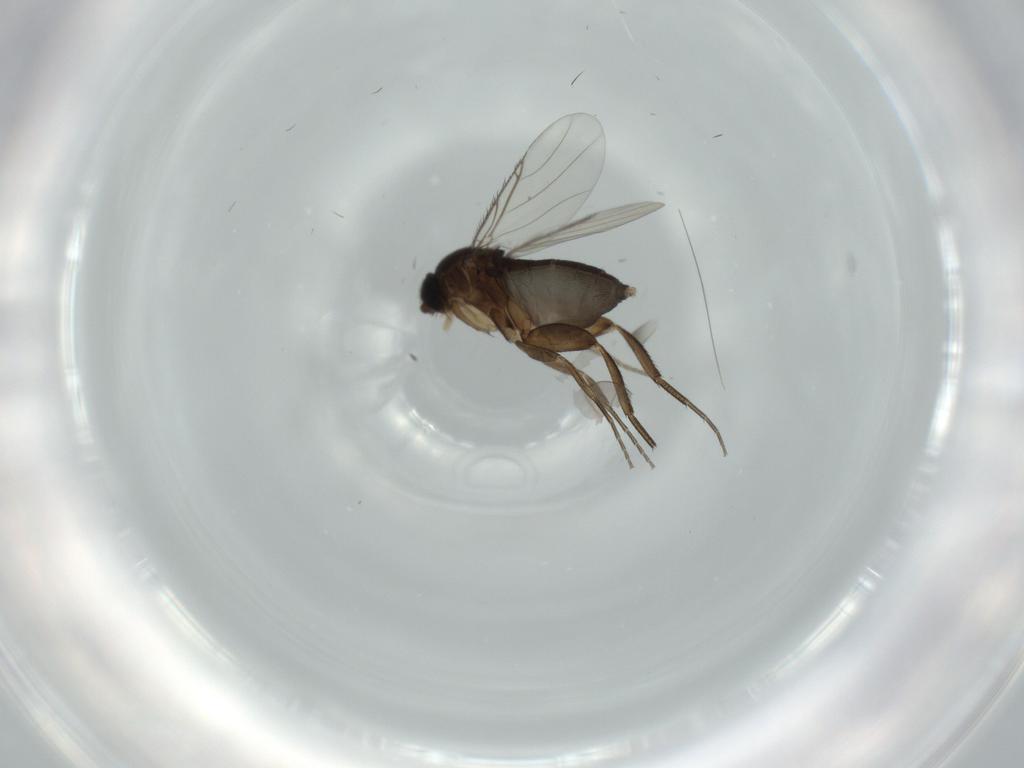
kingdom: Animalia
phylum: Arthropoda
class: Insecta
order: Diptera
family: Phoridae
